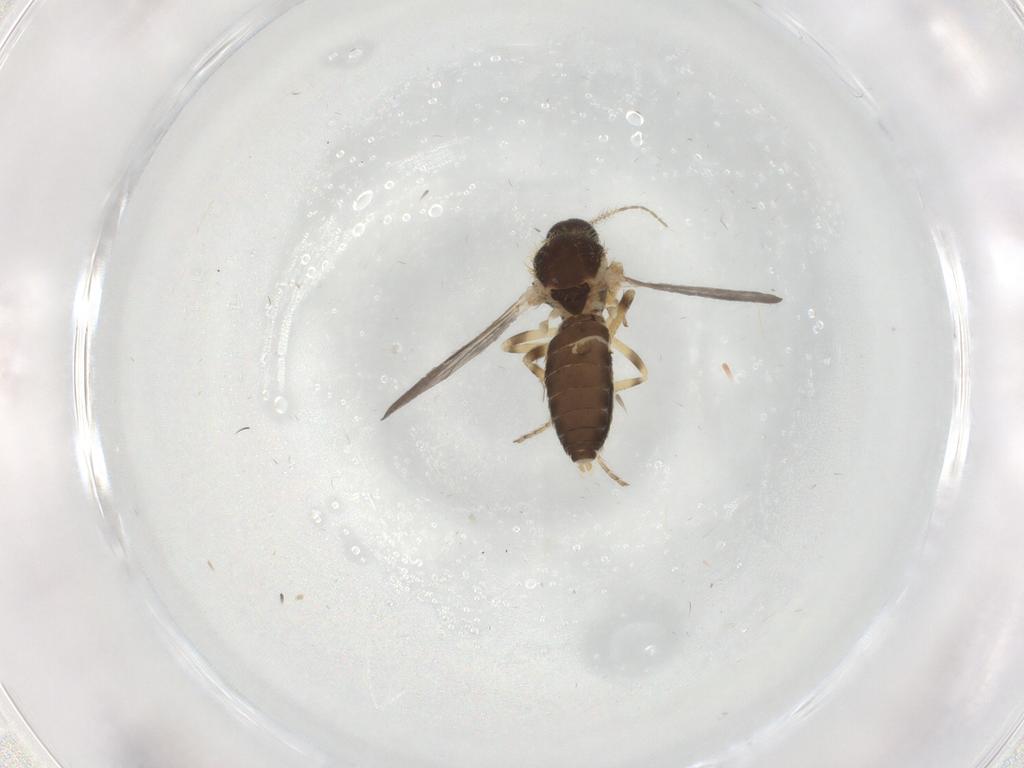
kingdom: Animalia
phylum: Arthropoda
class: Insecta
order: Diptera
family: Ceratopogonidae
